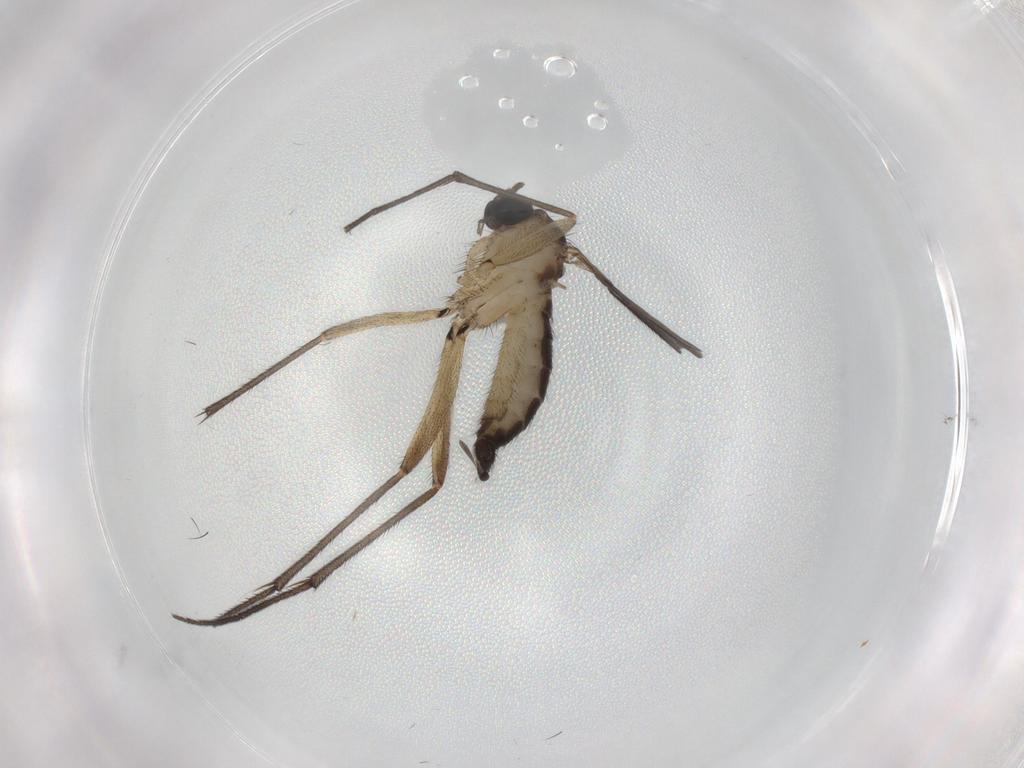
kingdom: Animalia
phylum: Arthropoda
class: Insecta
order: Diptera
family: Sciaridae
